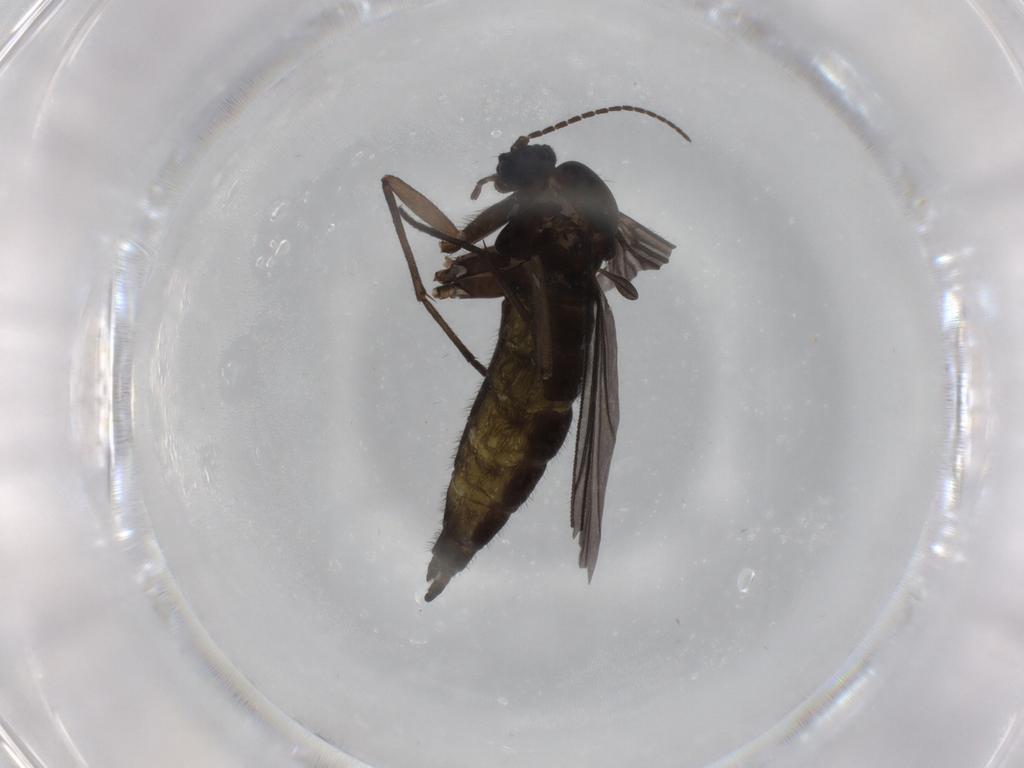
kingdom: Animalia
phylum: Arthropoda
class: Insecta
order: Diptera
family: Sciaridae
